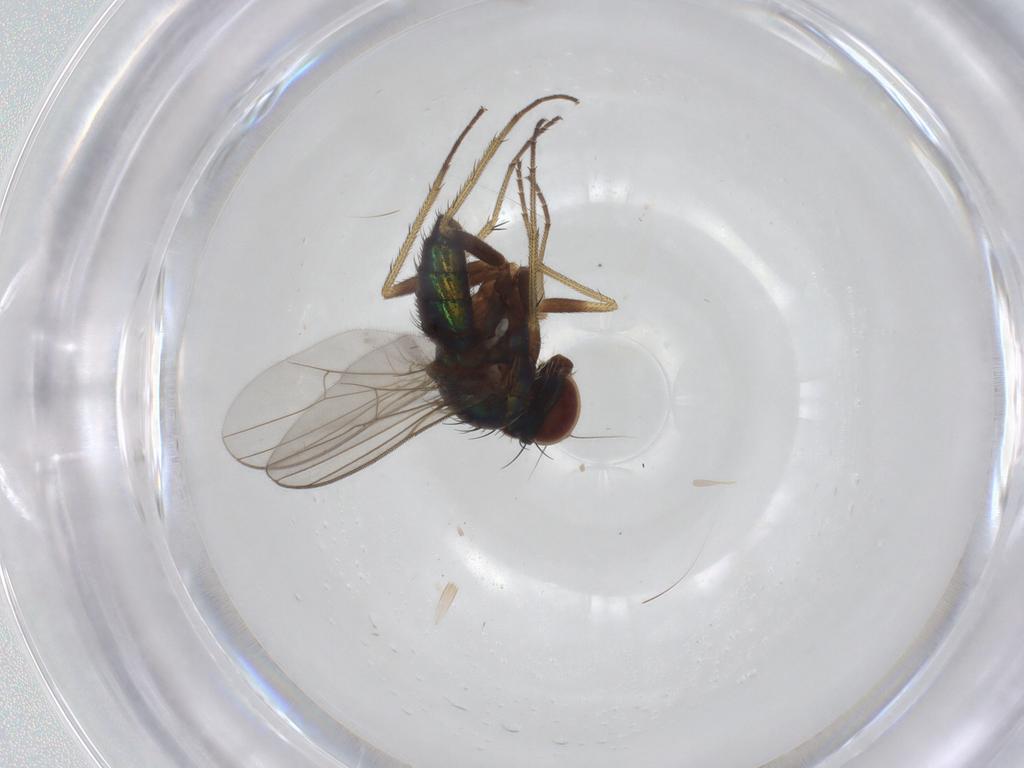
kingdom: Animalia
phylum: Arthropoda
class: Insecta
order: Diptera
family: Dolichopodidae
